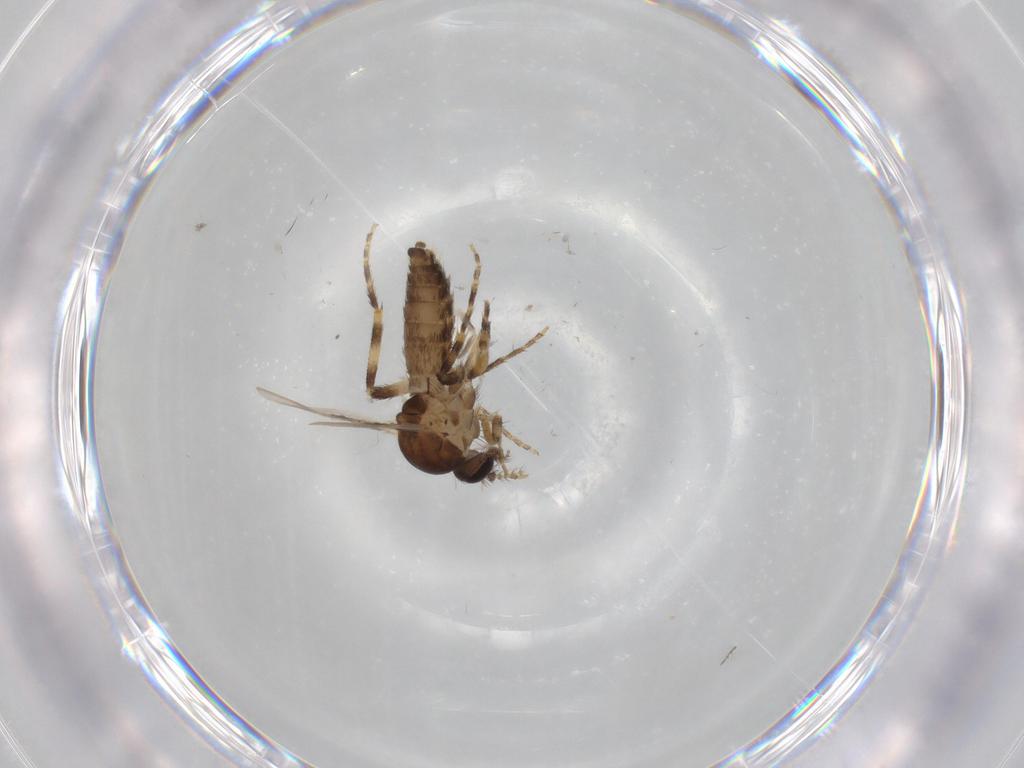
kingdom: Animalia
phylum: Arthropoda
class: Insecta
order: Diptera
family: Ceratopogonidae
